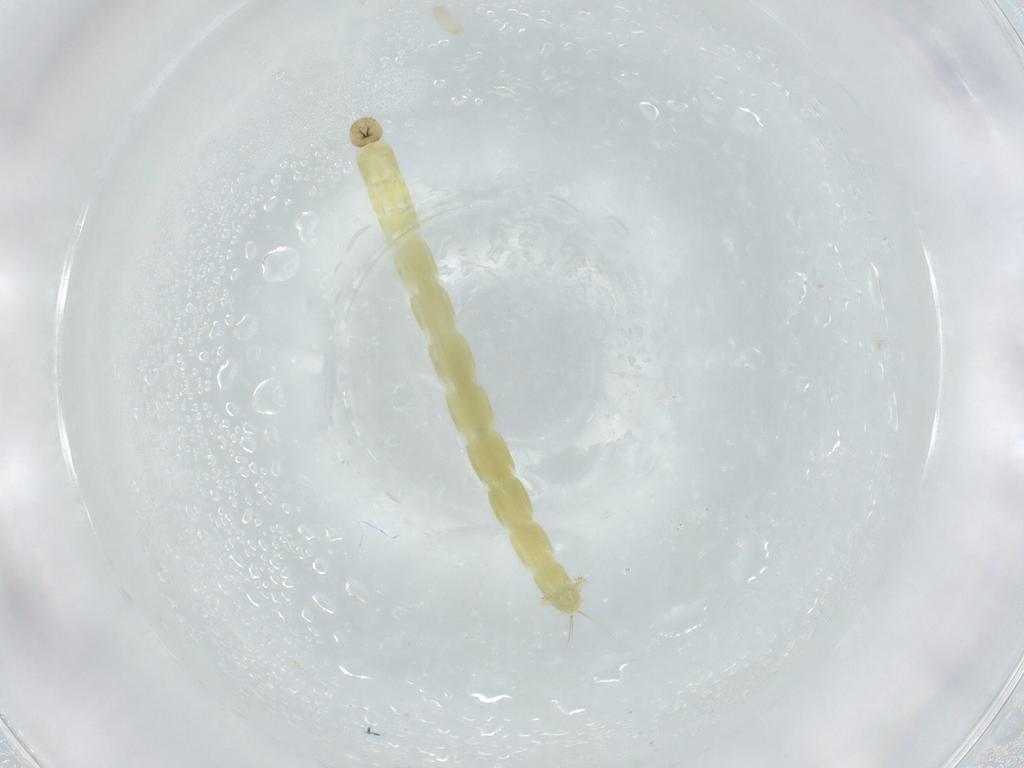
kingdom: Animalia
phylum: Arthropoda
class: Insecta
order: Diptera
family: Chironomidae
